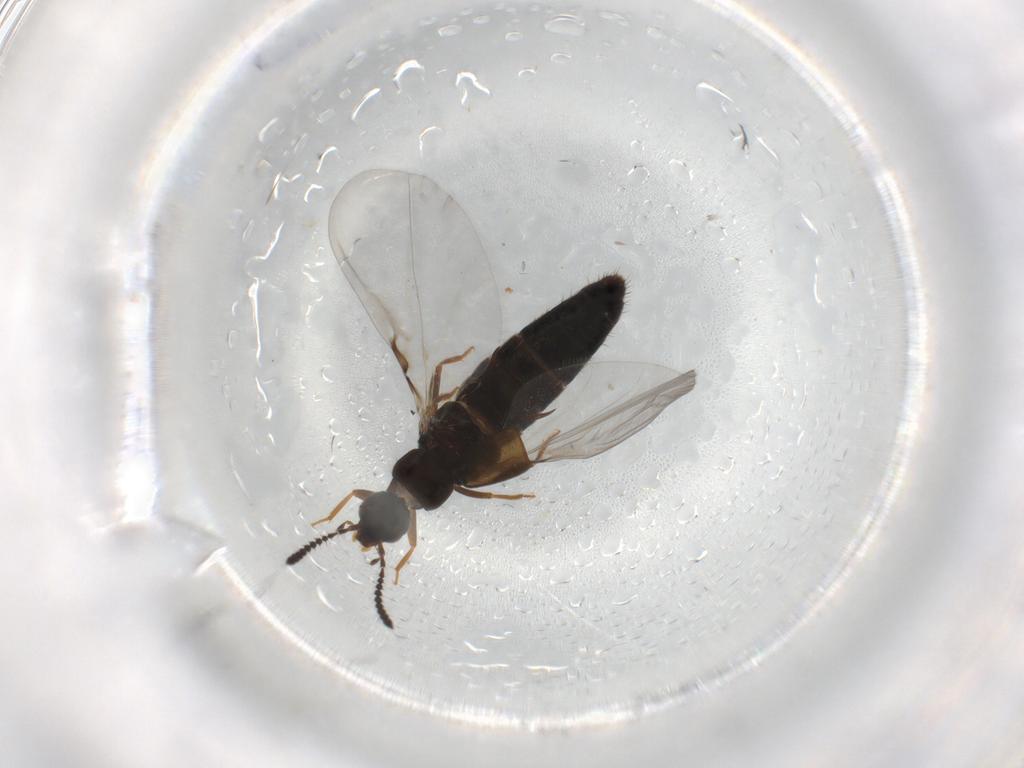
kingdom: Animalia
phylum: Arthropoda
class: Insecta
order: Coleoptera
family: Staphylinidae
